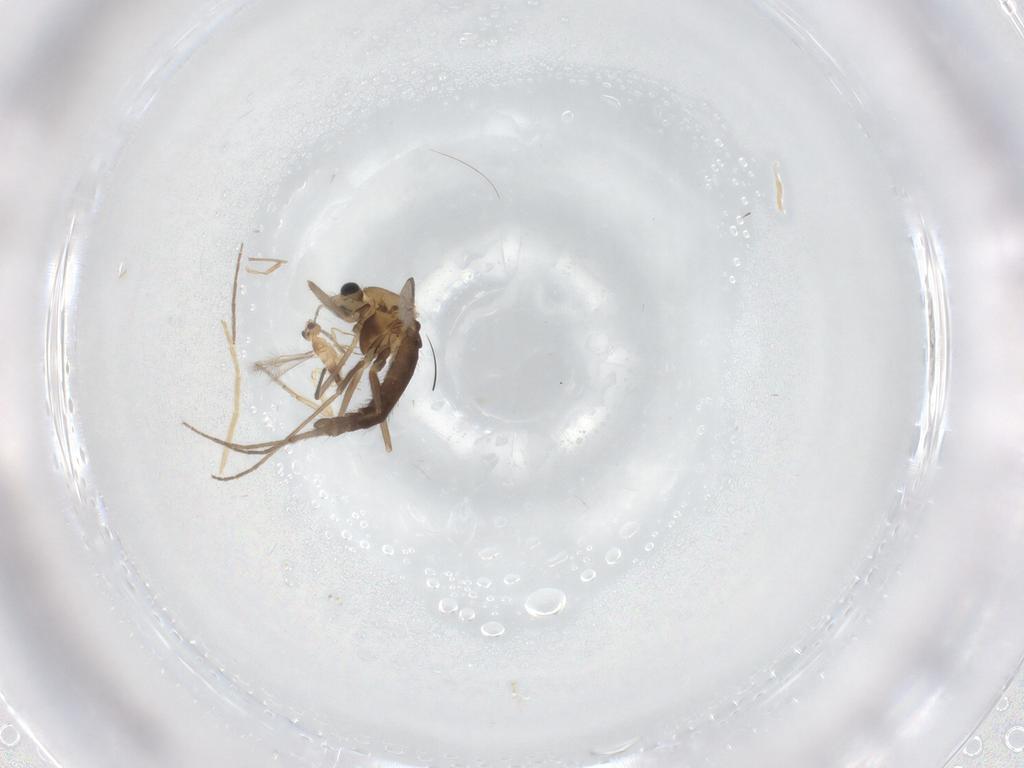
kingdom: Animalia
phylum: Arthropoda
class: Insecta
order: Diptera
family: Chironomidae
